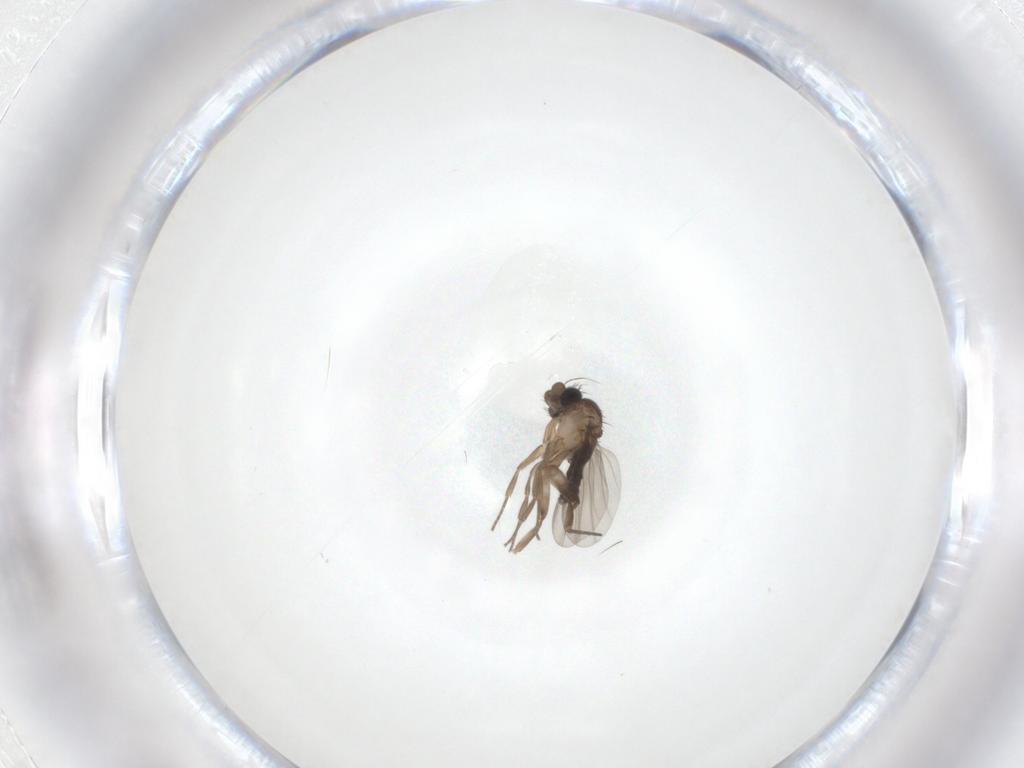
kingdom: Animalia
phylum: Arthropoda
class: Insecta
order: Diptera
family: Phoridae
